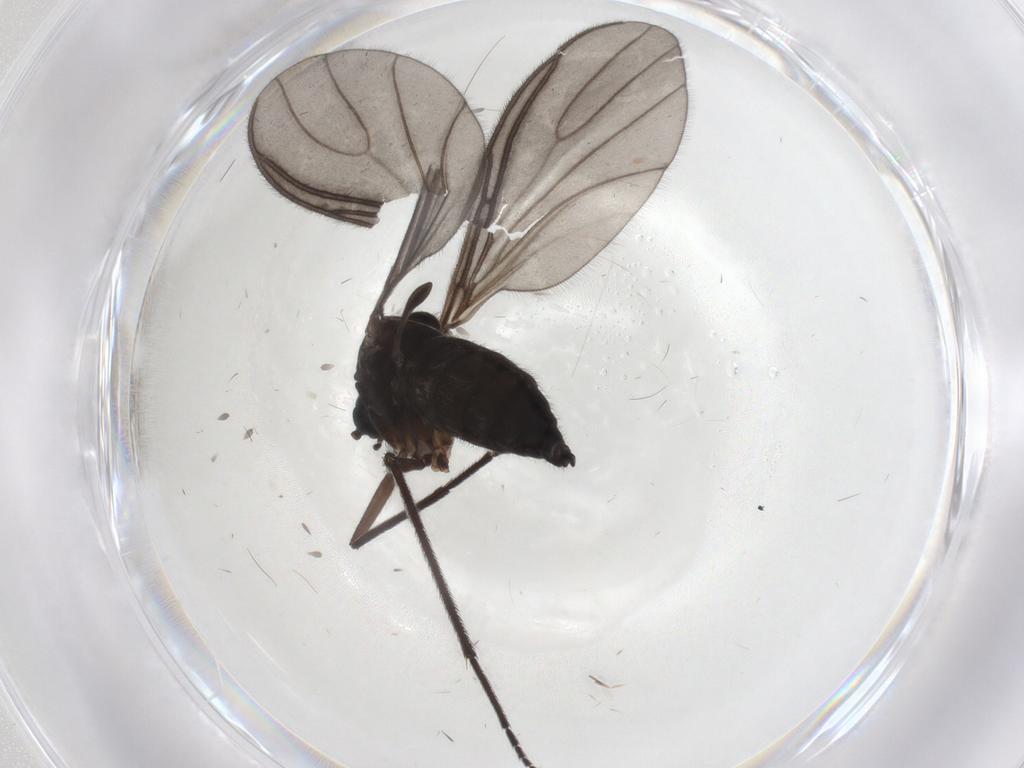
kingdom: Animalia
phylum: Arthropoda
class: Insecta
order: Diptera
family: Sciaridae
